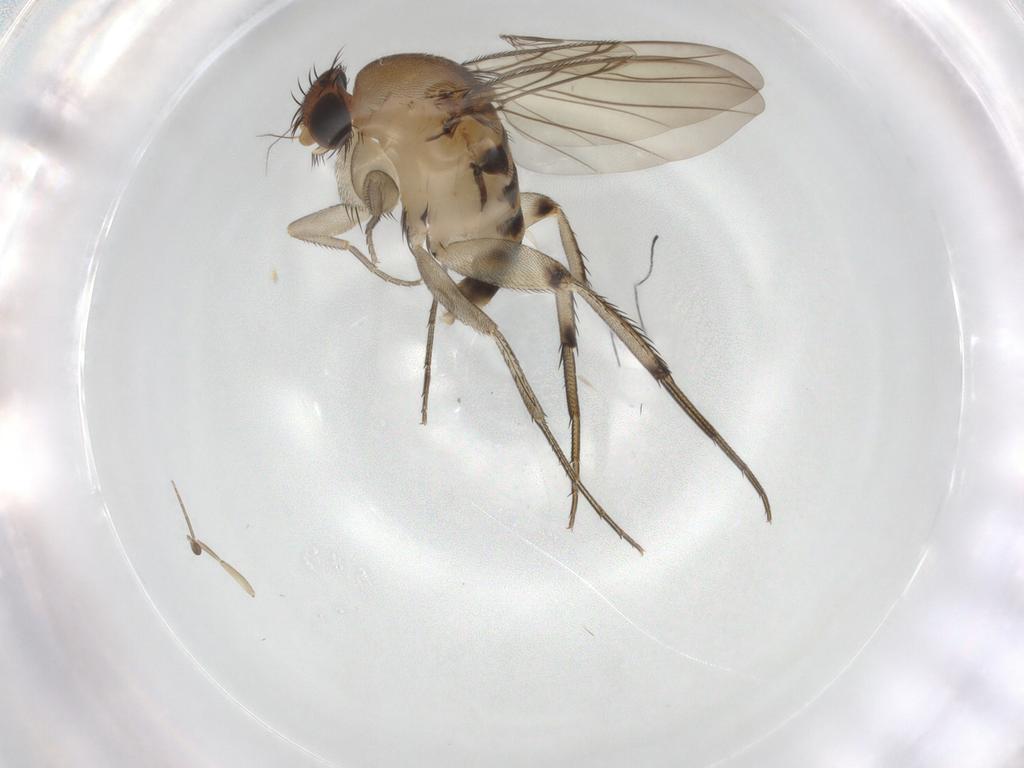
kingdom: Animalia
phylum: Arthropoda
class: Insecta
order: Diptera
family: Phoridae
